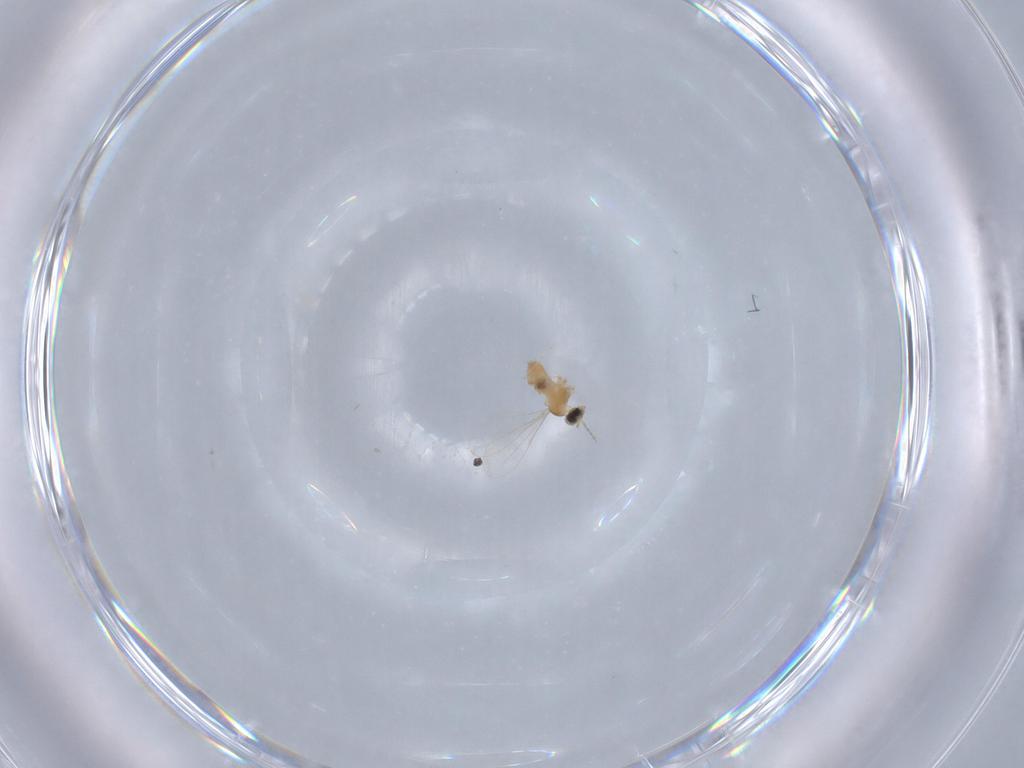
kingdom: Animalia
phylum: Arthropoda
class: Insecta
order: Diptera
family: Cecidomyiidae
